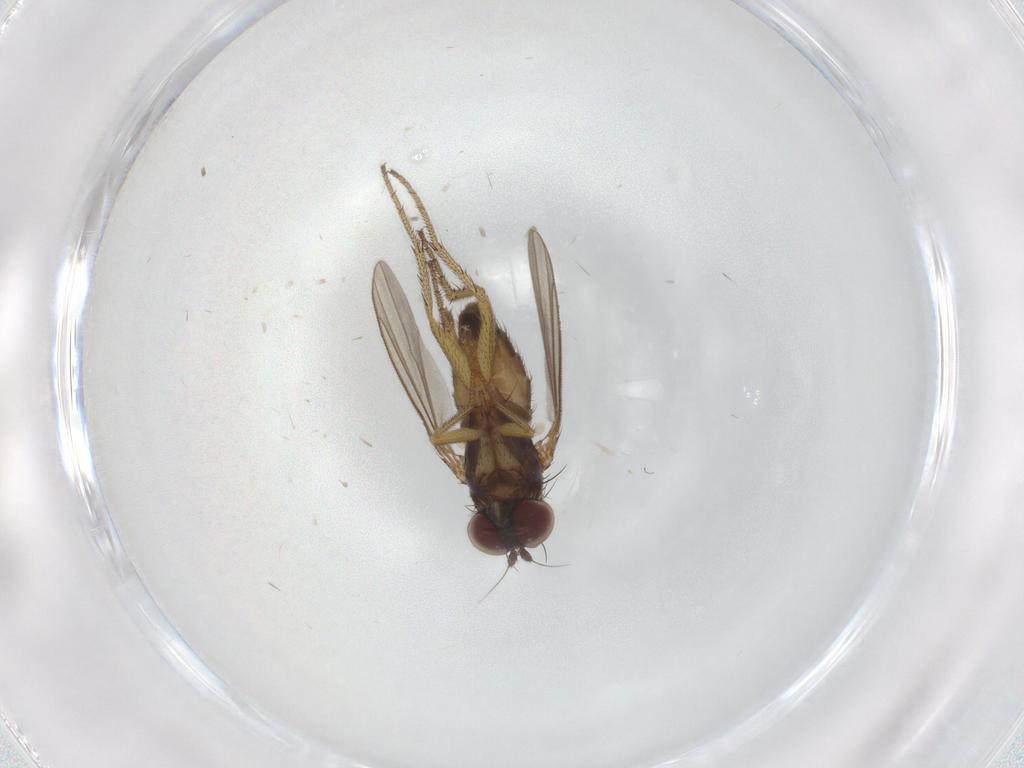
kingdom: Animalia
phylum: Arthropoda
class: Insecta
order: Diptera
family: Dolichopodidae
